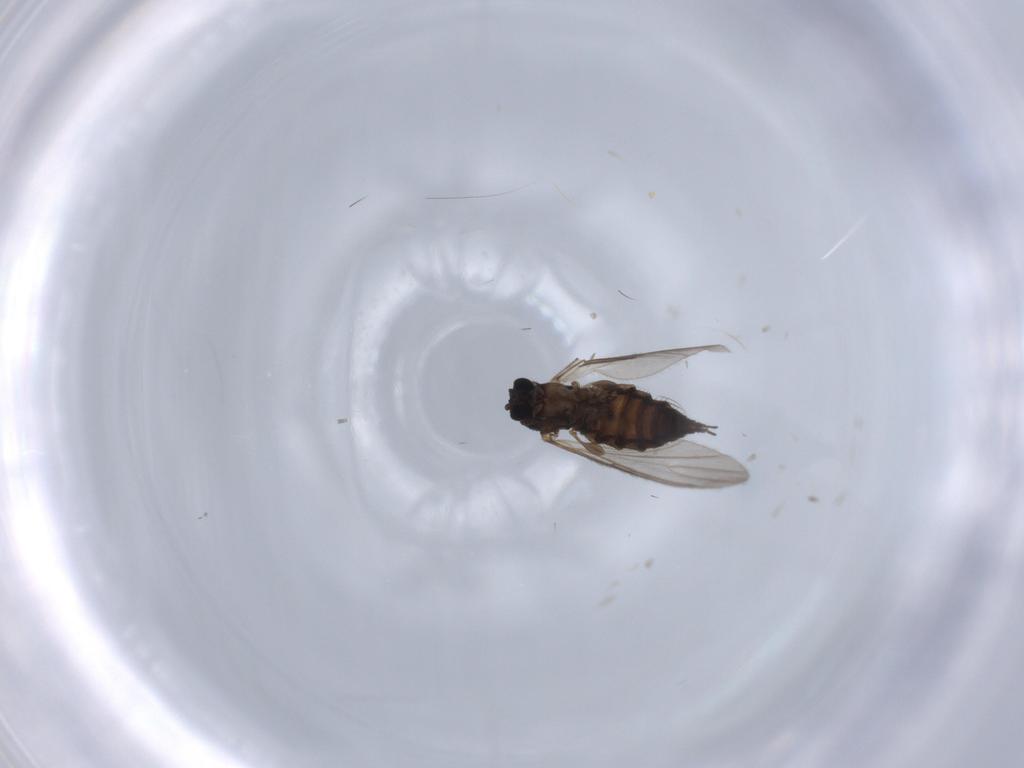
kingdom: Animalia
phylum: Arthropoda
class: Insecta
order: Diptera
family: Sciaridae
